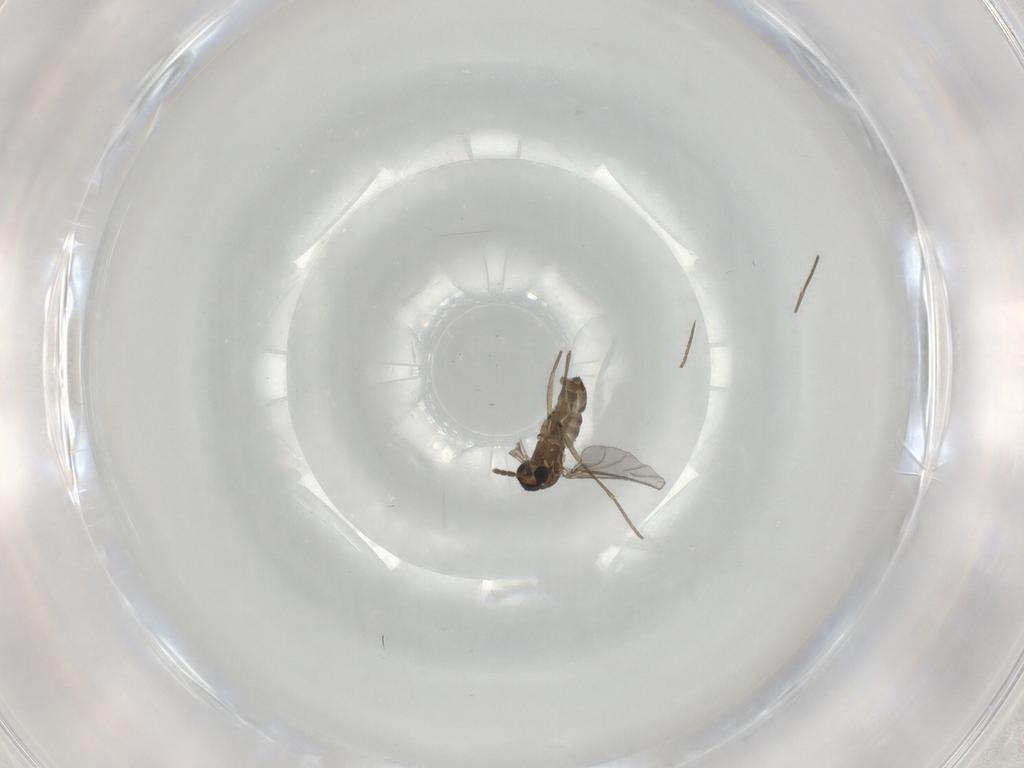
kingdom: Animalia
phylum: Arthropoda
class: Insecta
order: Diptera
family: Sciaridae
